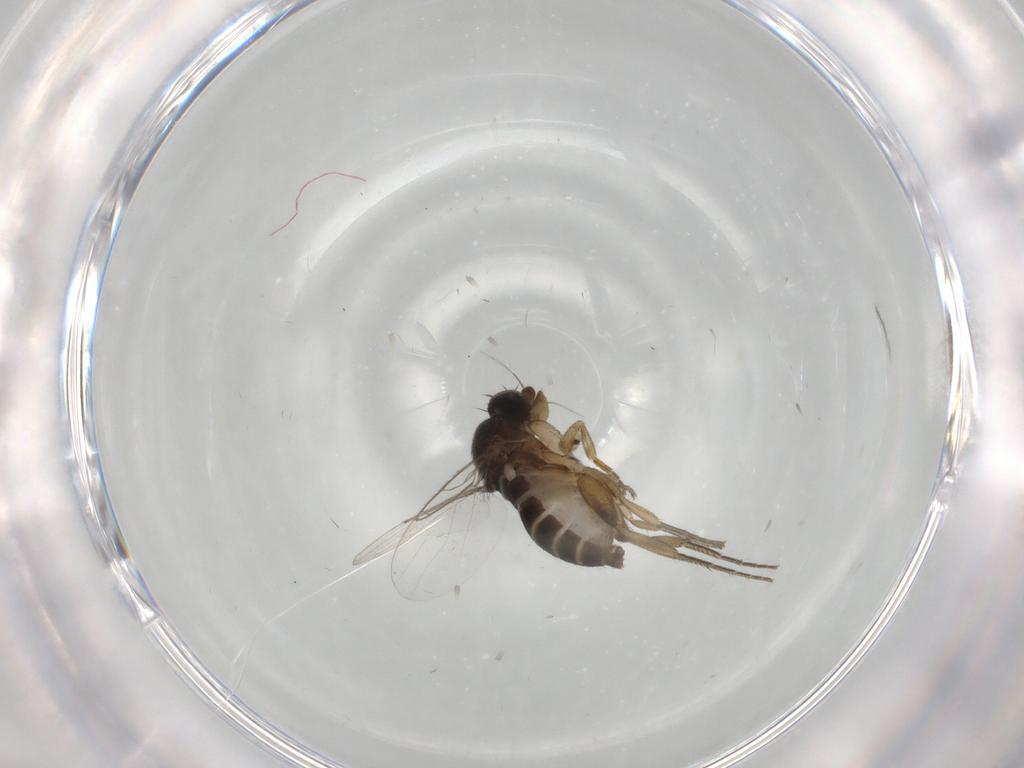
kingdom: Animalia
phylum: Arthropoda
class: Insecta
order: Diptera
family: Phoridae
